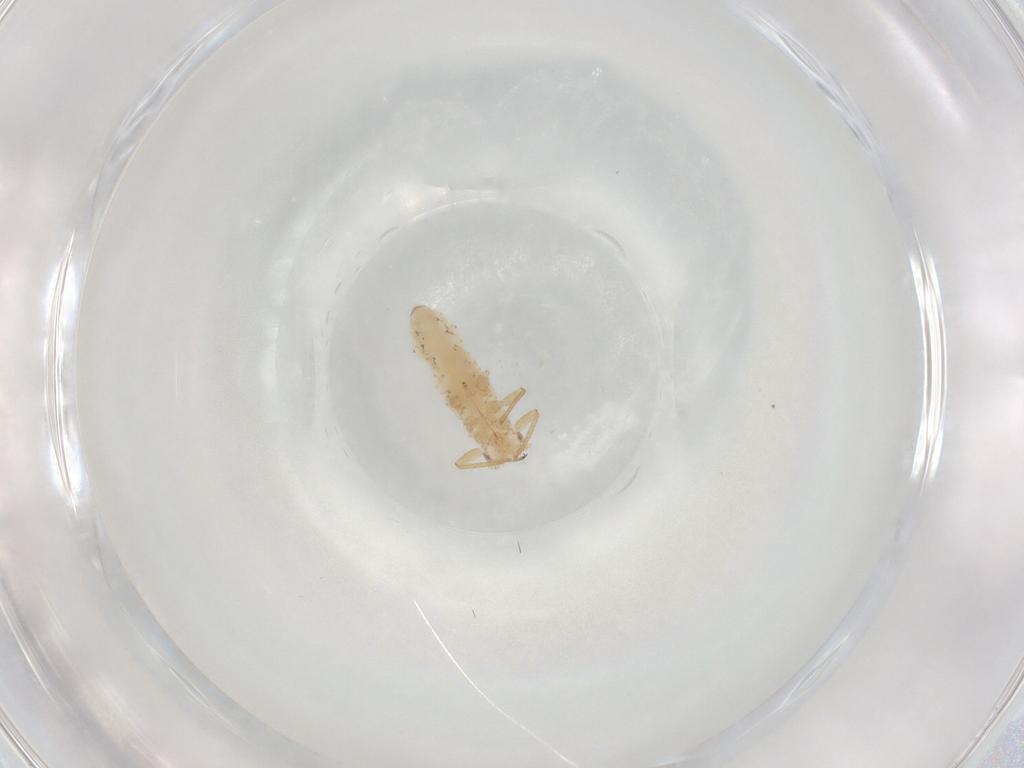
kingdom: Animalia
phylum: Arthropoda
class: Insecta
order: Hemiptera
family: Aphididae
